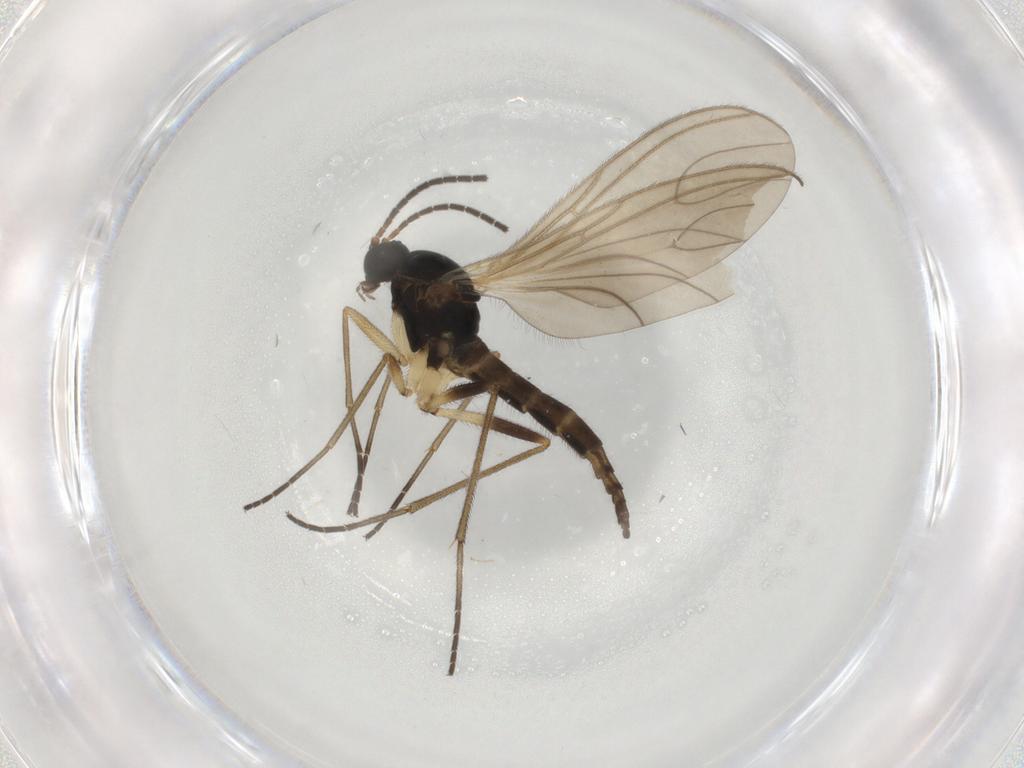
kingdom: Animalia
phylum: Arthropoda
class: Insecta
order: Diptera
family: Sciaridae
